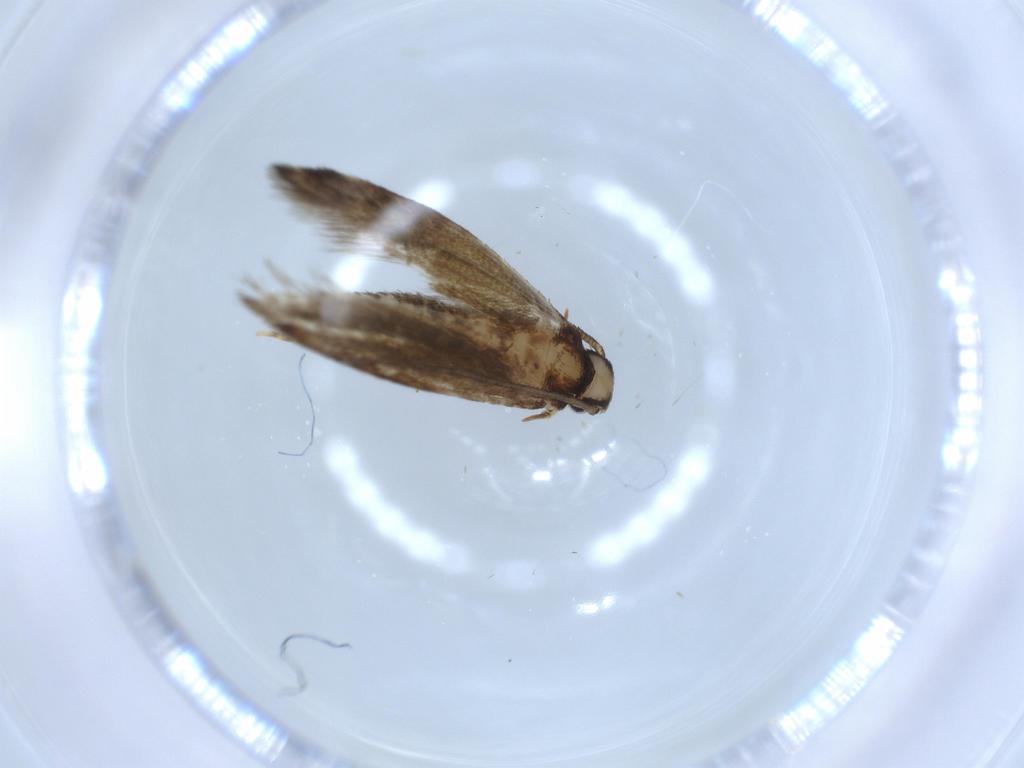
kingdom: Animalia
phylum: Arthropoda
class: Insecta
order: Lepidoptera
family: Tineidae
